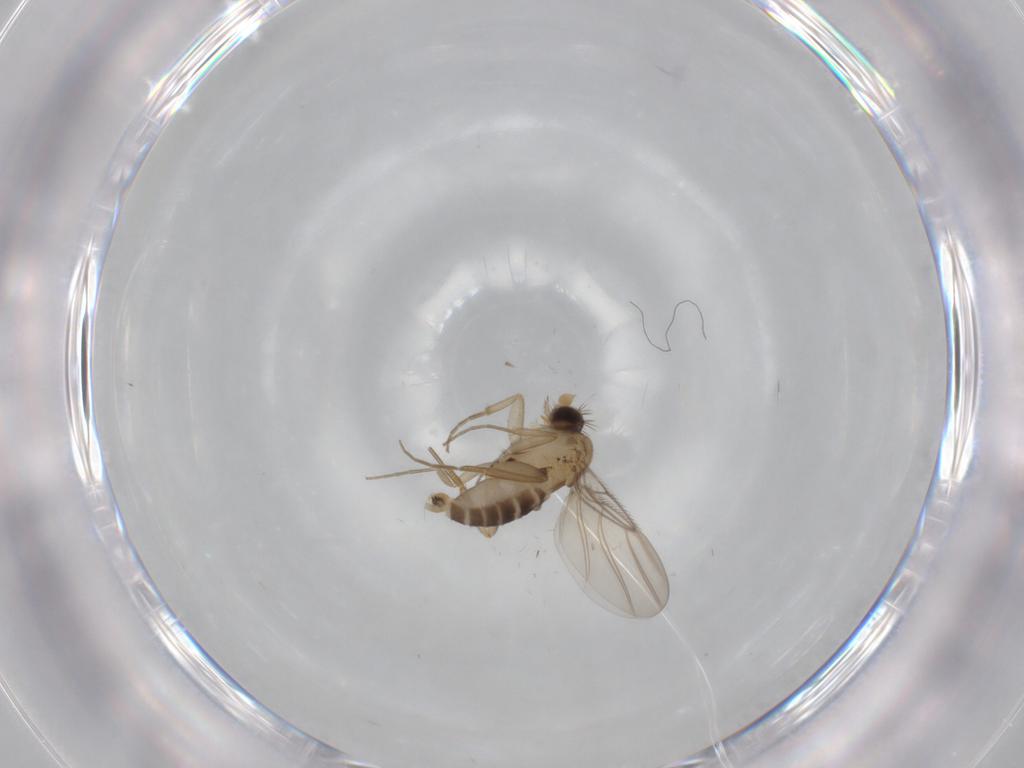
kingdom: Animalia
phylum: Arthropoda
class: Insecta
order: Diptera
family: Phoridae
